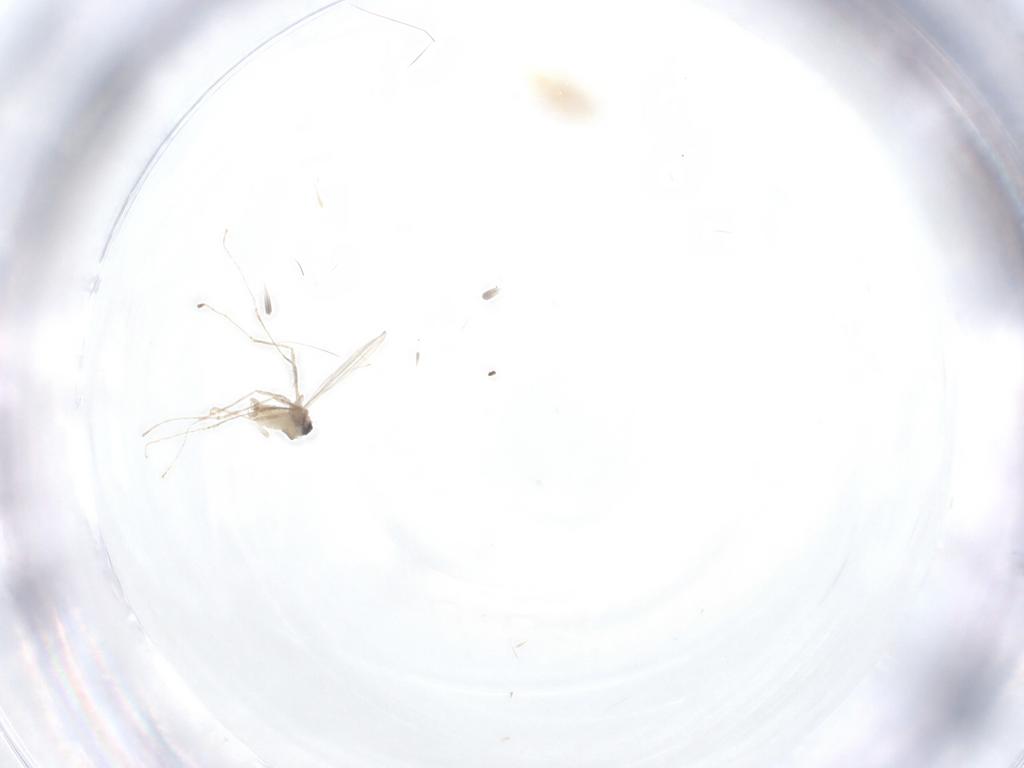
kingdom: Animalia
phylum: Arthropoda
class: Insecta
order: Diptera
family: Cecidomyiidae
